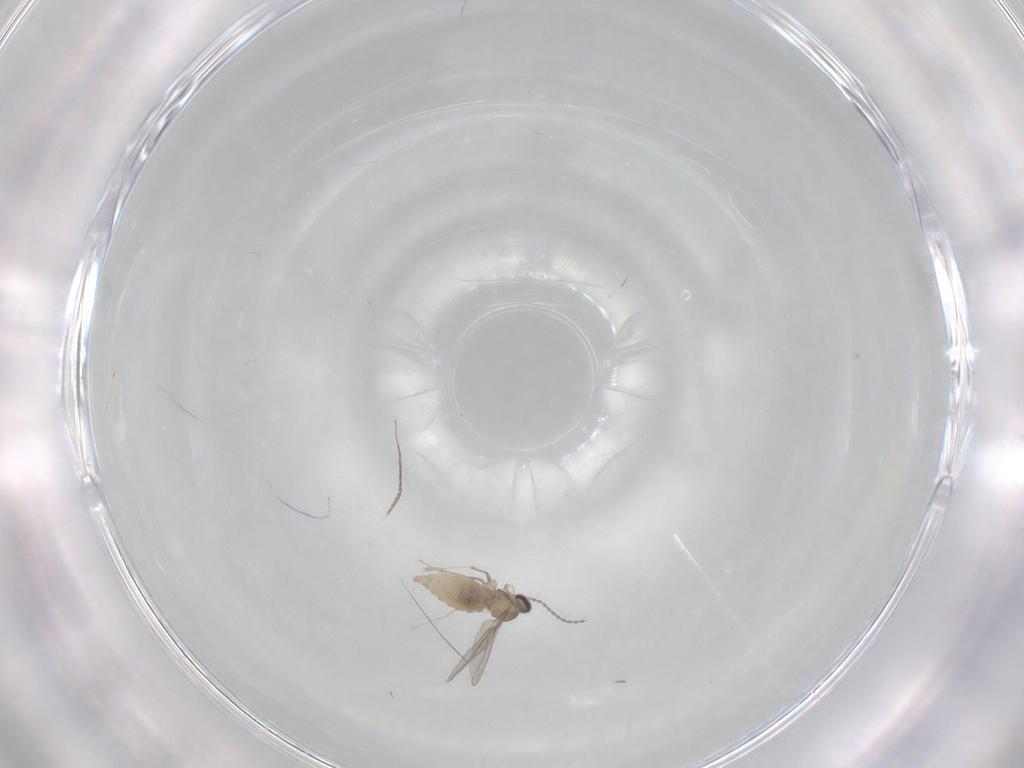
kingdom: Animalia
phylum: Arthropoda
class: Insecta
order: Diptera
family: Cecidomyiidae
